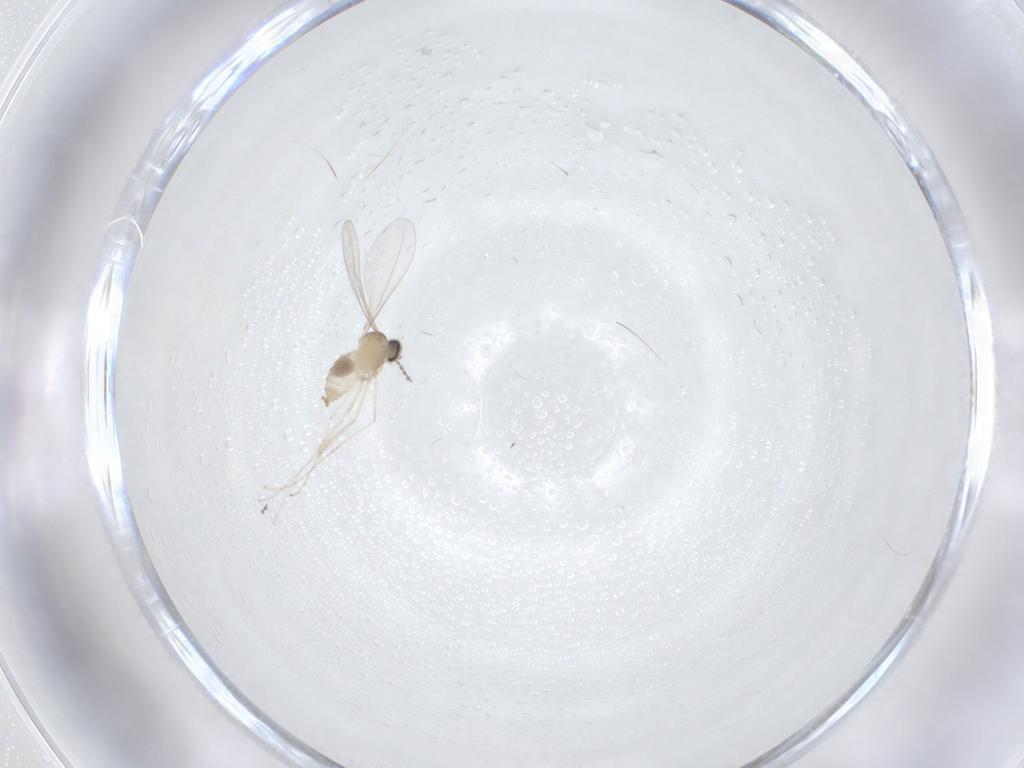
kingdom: Animalia
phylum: Arthropoda
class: Insecta
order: Diptera
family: Cecidomyiidae
